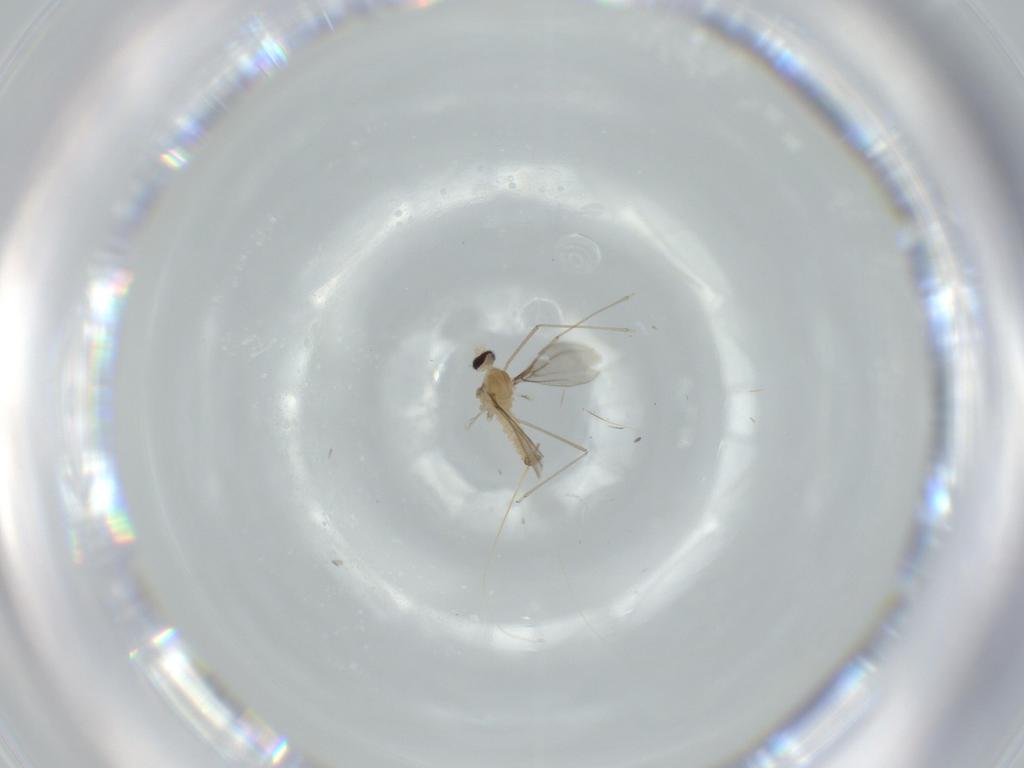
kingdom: Animalia
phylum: Arthropoda
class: Insecta
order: Diptera
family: Cecidomyiidae
